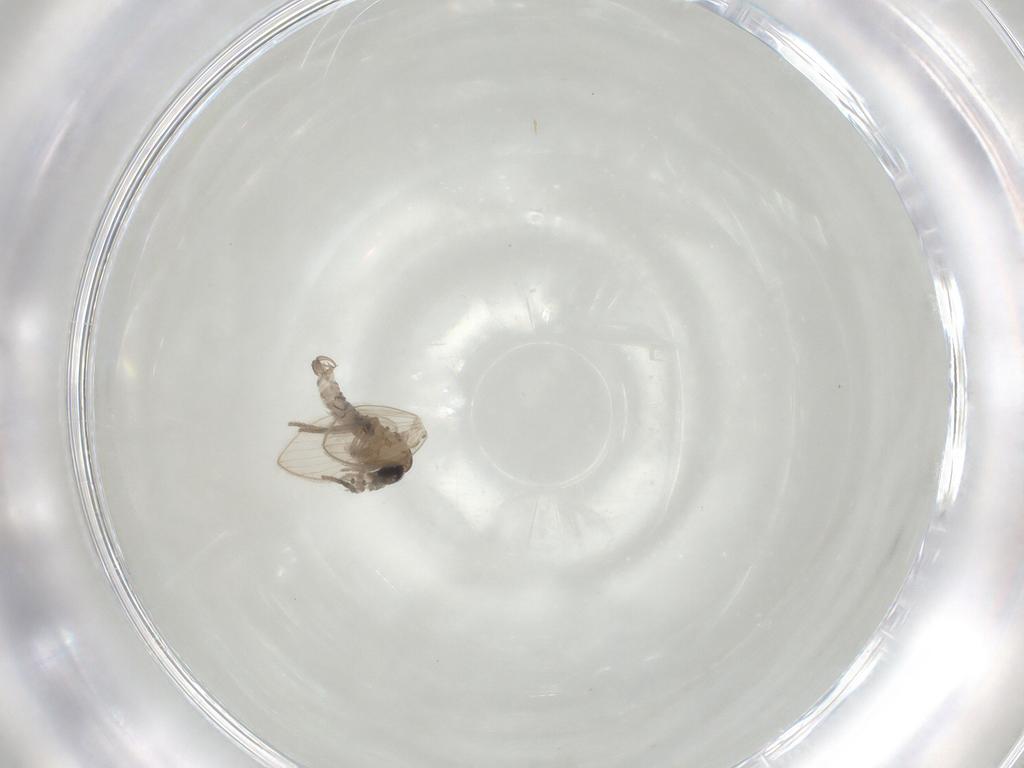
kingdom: Animalia
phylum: Arthropoda
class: Insecta
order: Diptera
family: Psychodidae
